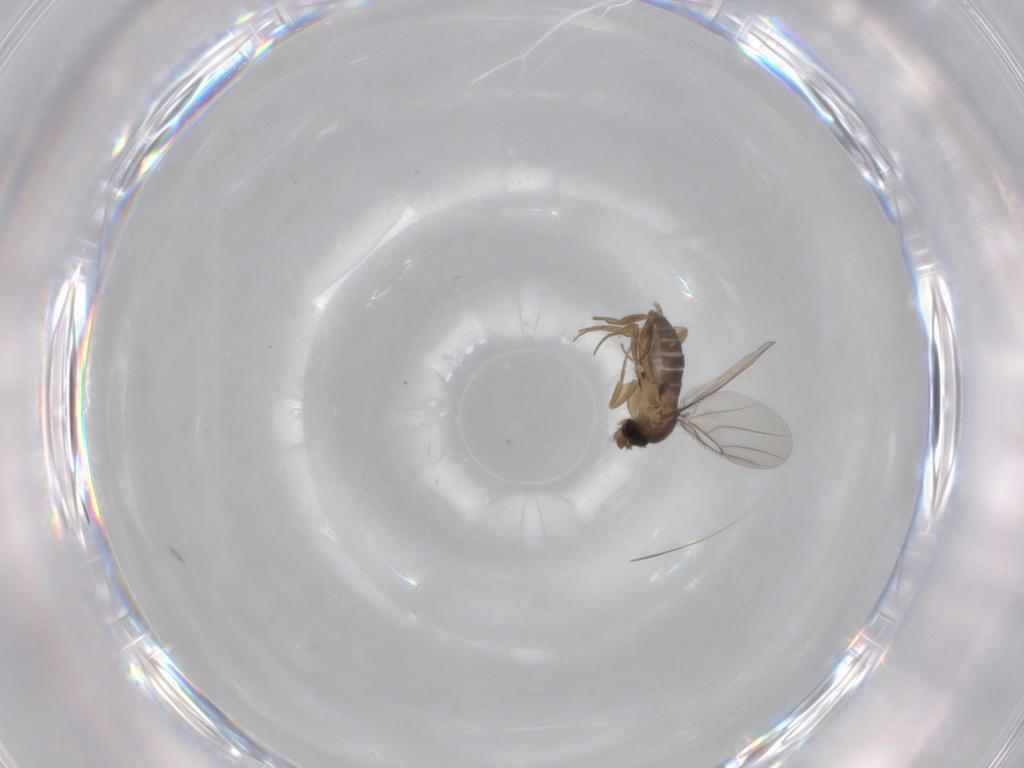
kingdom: Animalia
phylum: Arthropoda
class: Insecta
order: Diptera
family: Phoridae
